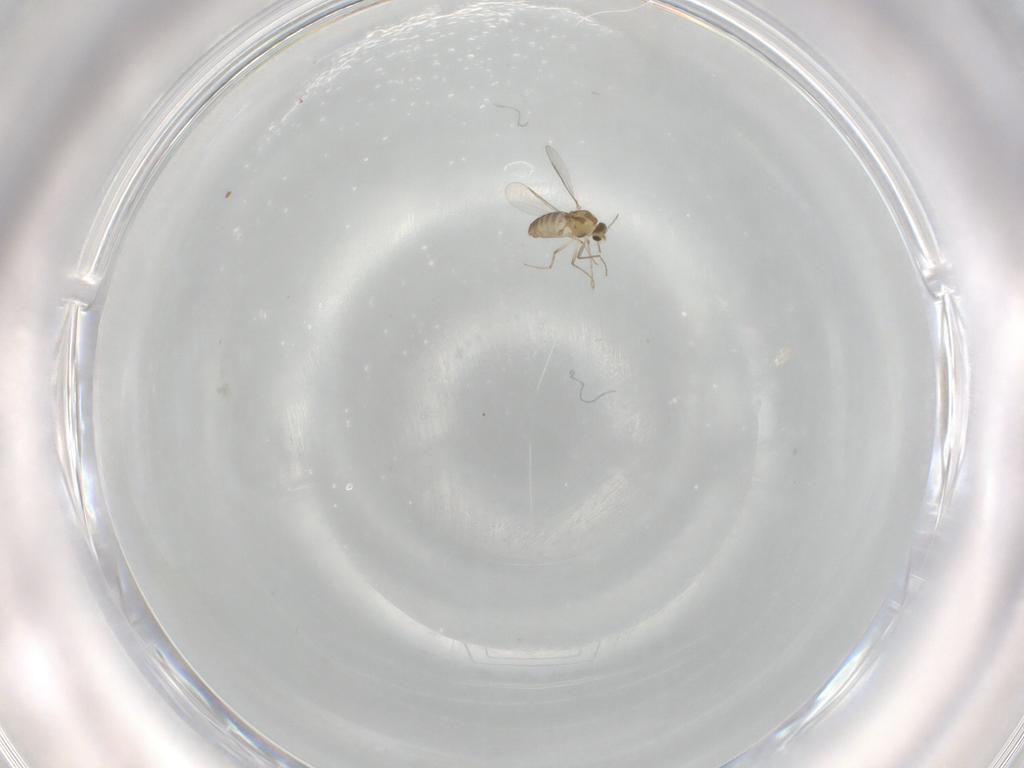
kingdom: Animalia
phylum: Arthropoda
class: Insecta
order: Diptera
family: Chironomidae
